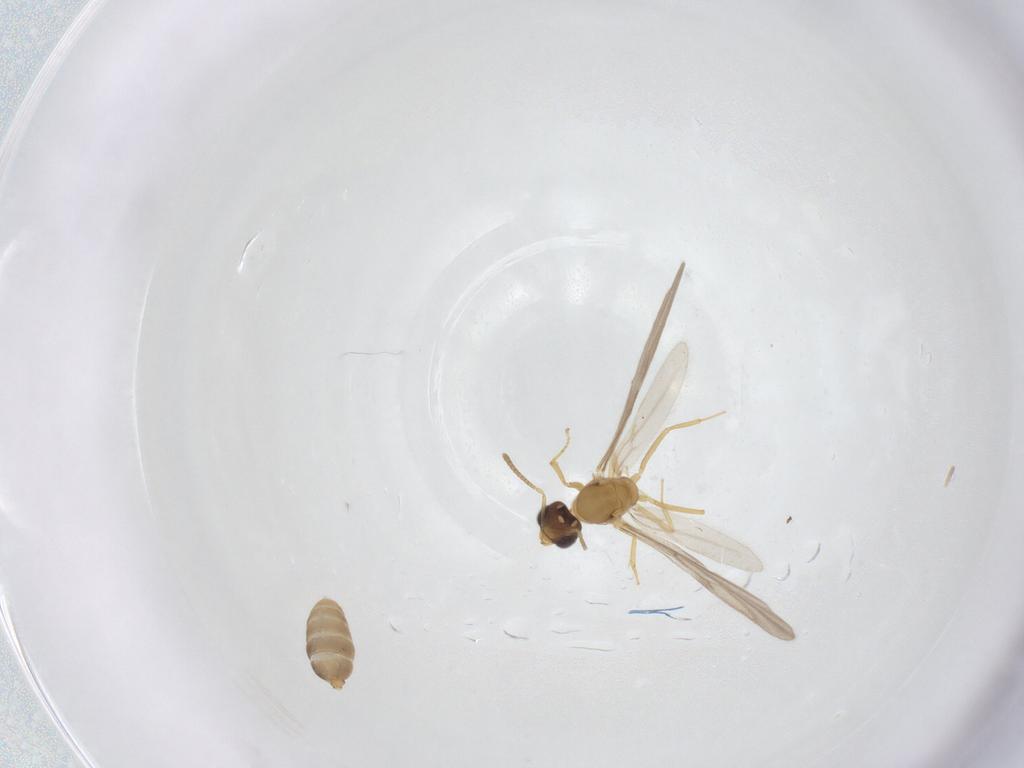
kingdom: Animalia
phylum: Arthropoda
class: Insecta
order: Hymenoptera
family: Formicidae
